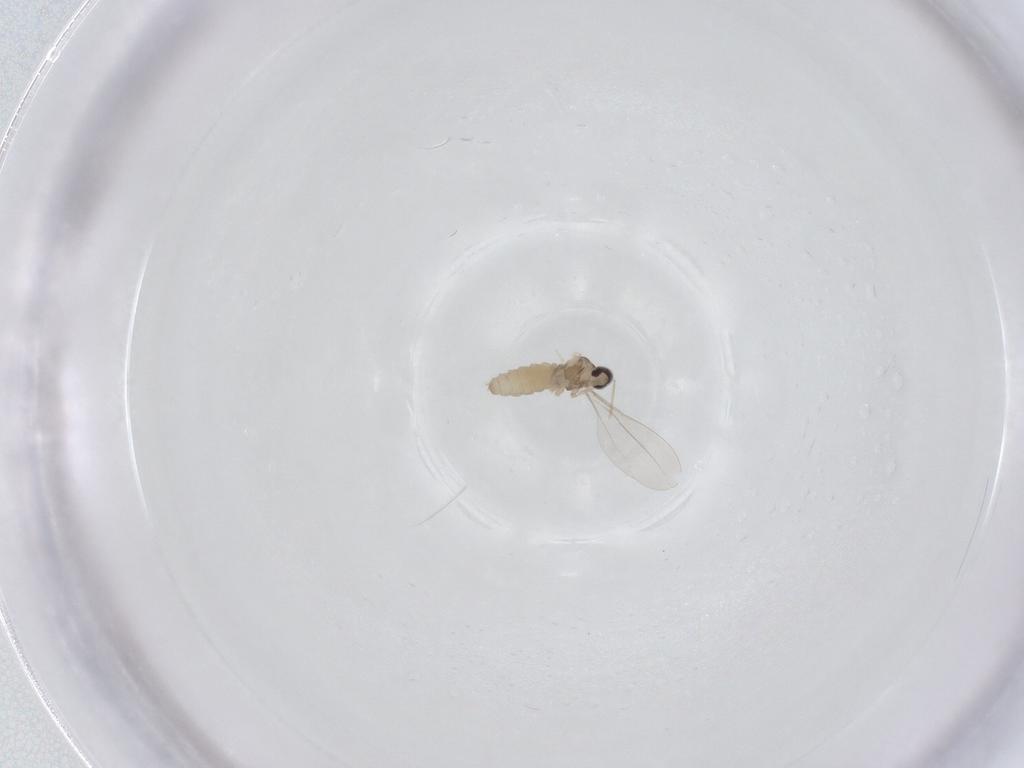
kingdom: Animalia
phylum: Arthropoda
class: Insecta
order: Diptera
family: Cecidomyiidae
